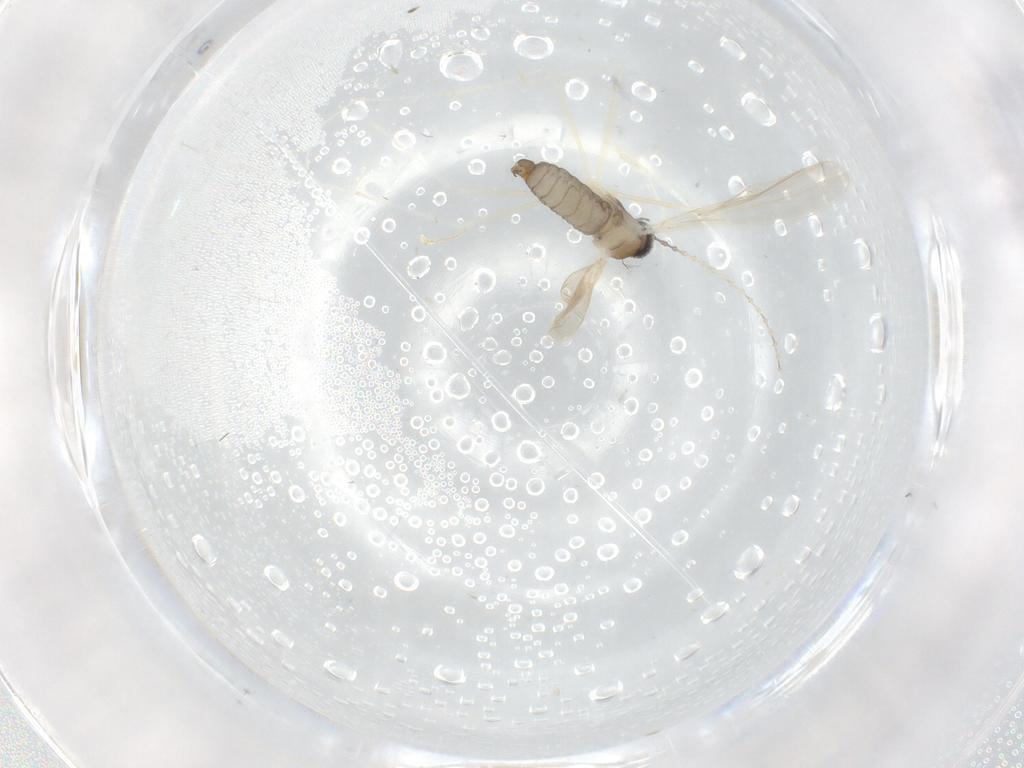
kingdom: Animalia
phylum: Arthropoda
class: Insecta
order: Diptera
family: Cecidomyiidae
